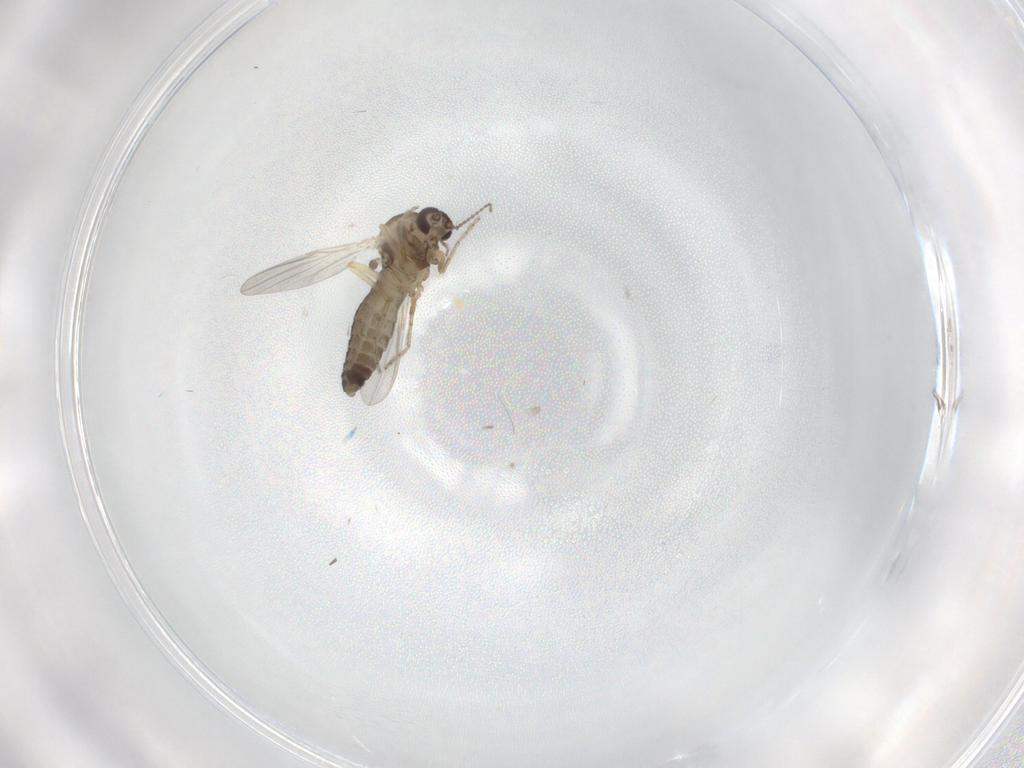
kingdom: Animalia
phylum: Arthropoda
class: Insecta
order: Diptera
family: Ceratopogonidae
